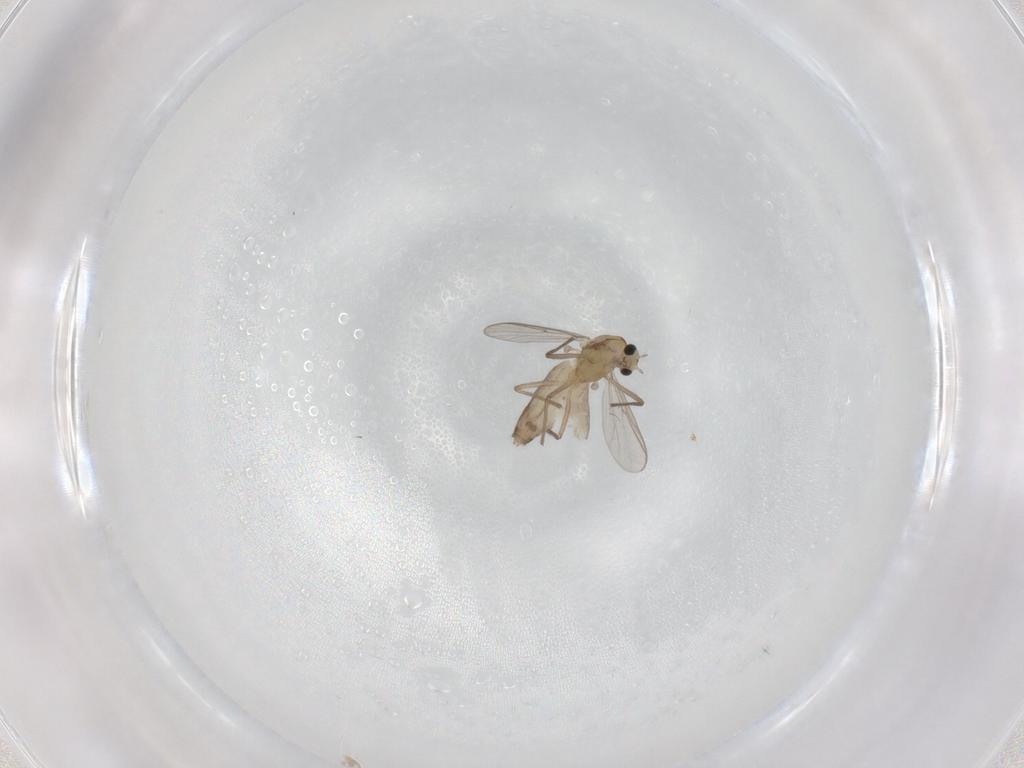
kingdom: Animalia
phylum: Arthropoda
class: Insecta
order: Diptera
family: Chironomidae
